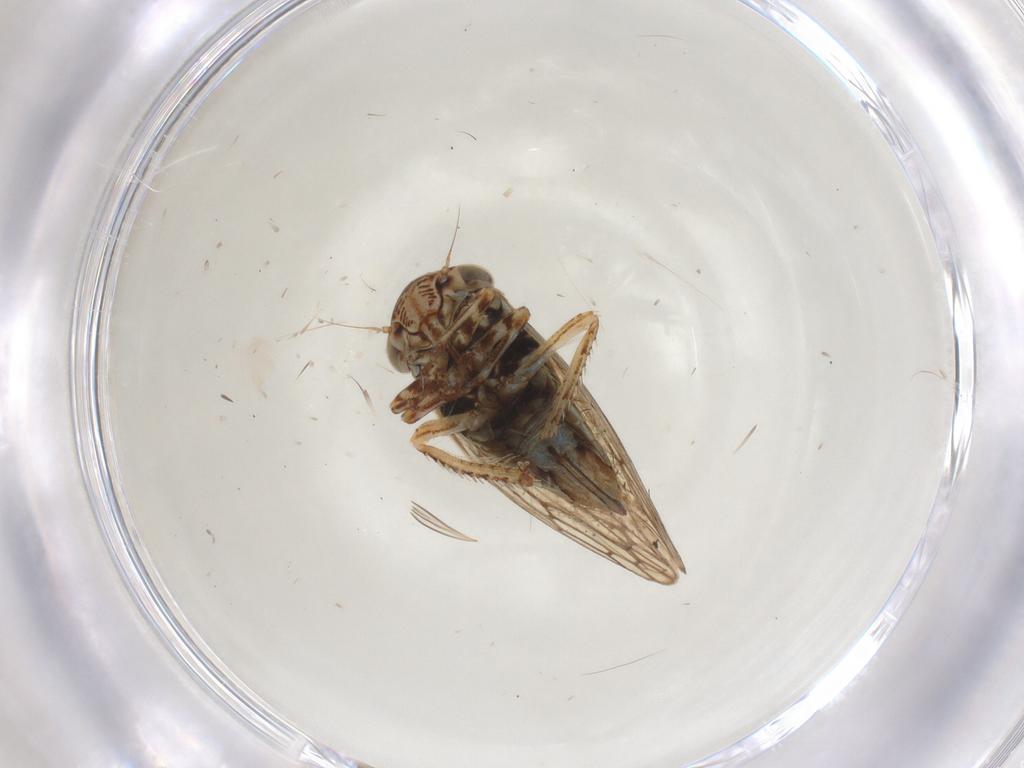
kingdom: Animalia
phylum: Arthropoda
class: Insecta
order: Hemiptera
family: Cicadellidae
